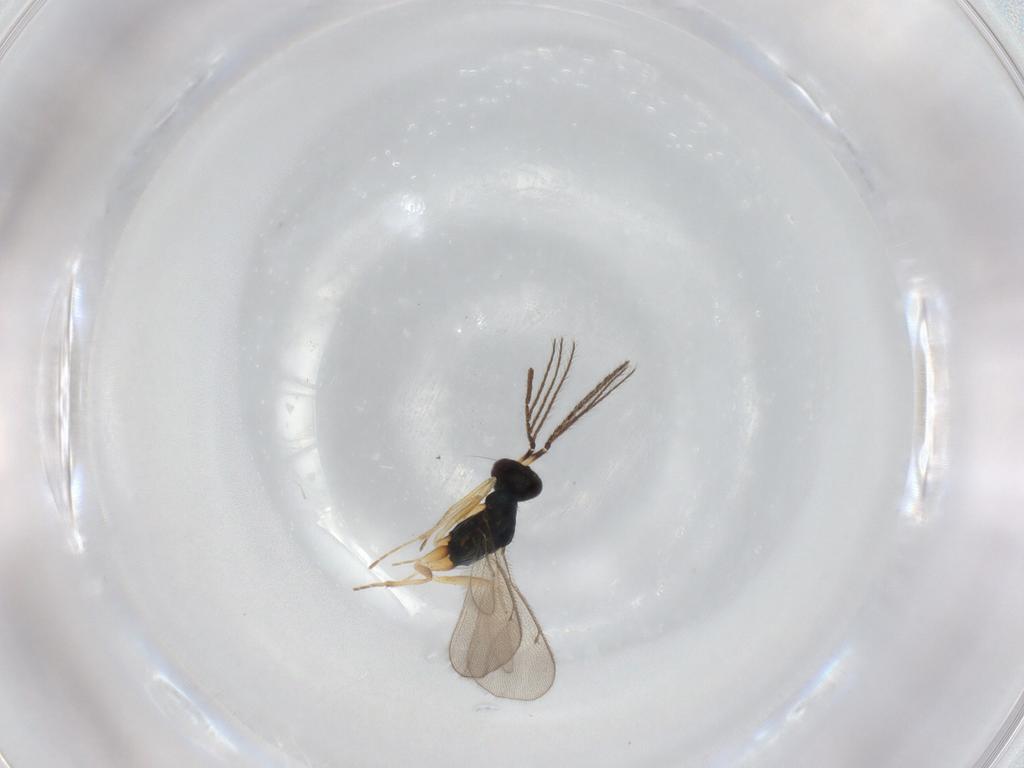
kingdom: Animalia
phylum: Arthropoda
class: Insecta
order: Hymenoptera
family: Eulophidae
